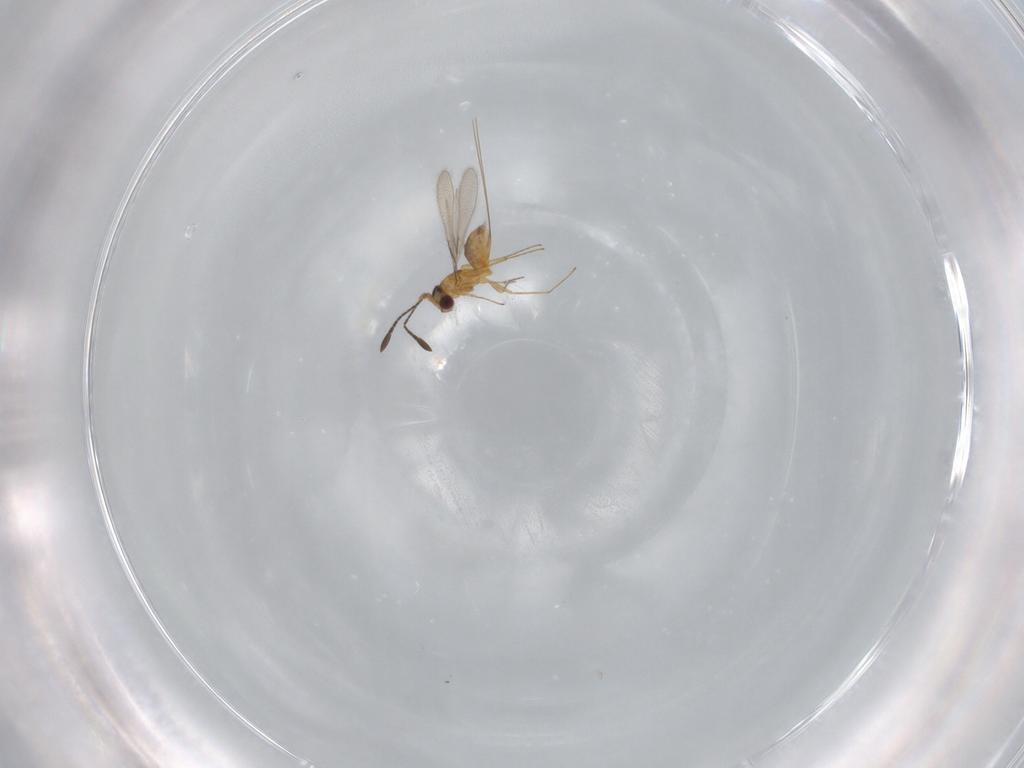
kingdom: Animalia
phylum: Arthropoda
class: Insecta
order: Hymenoptera
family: Mymaridae
